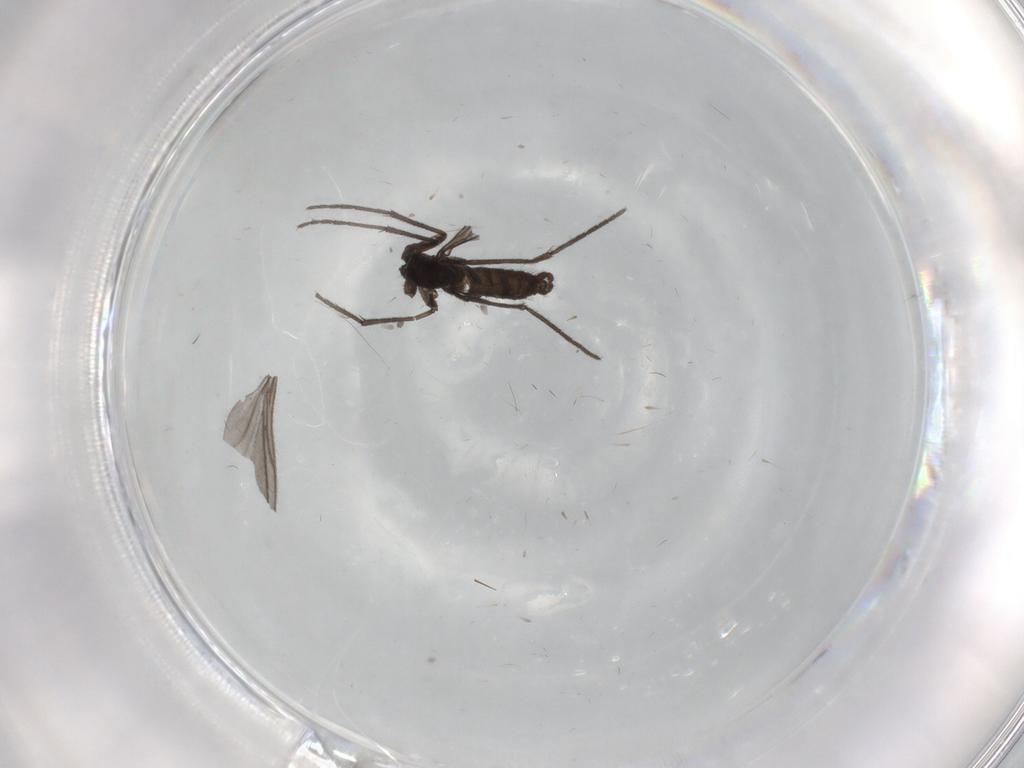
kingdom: Animalia
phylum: Arthropoda
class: Insecta
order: Diptera
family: Sciaridae
